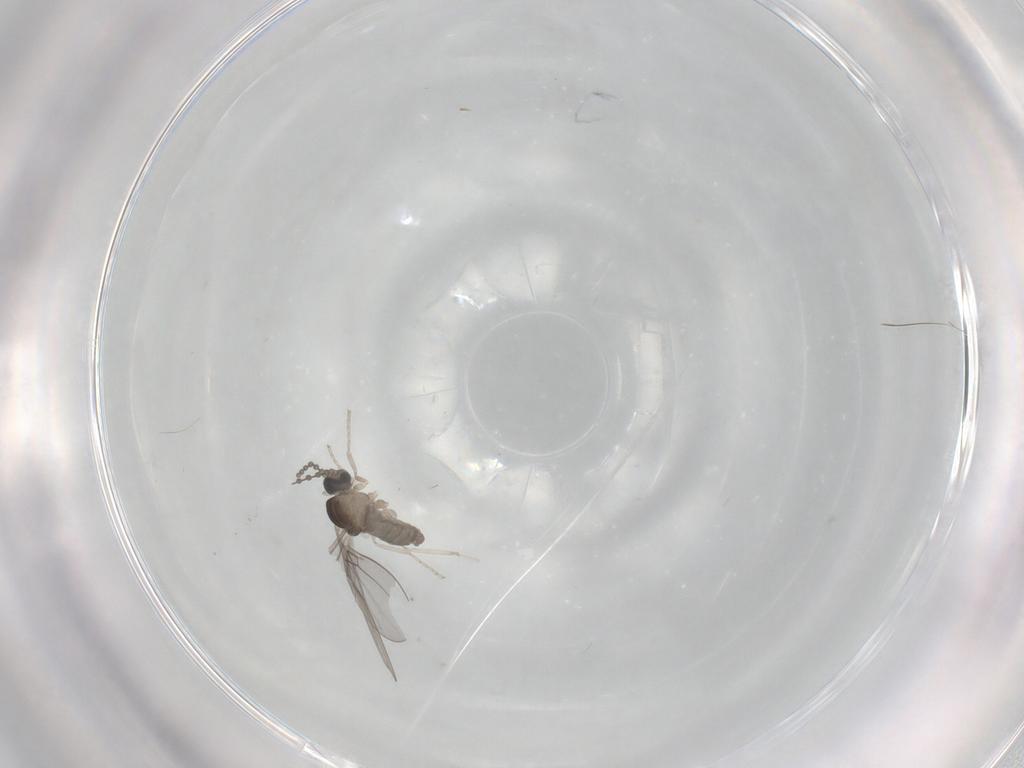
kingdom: Animalia
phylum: Arthropoda
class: Insecta
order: Diptera
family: Cecidomyiidae
